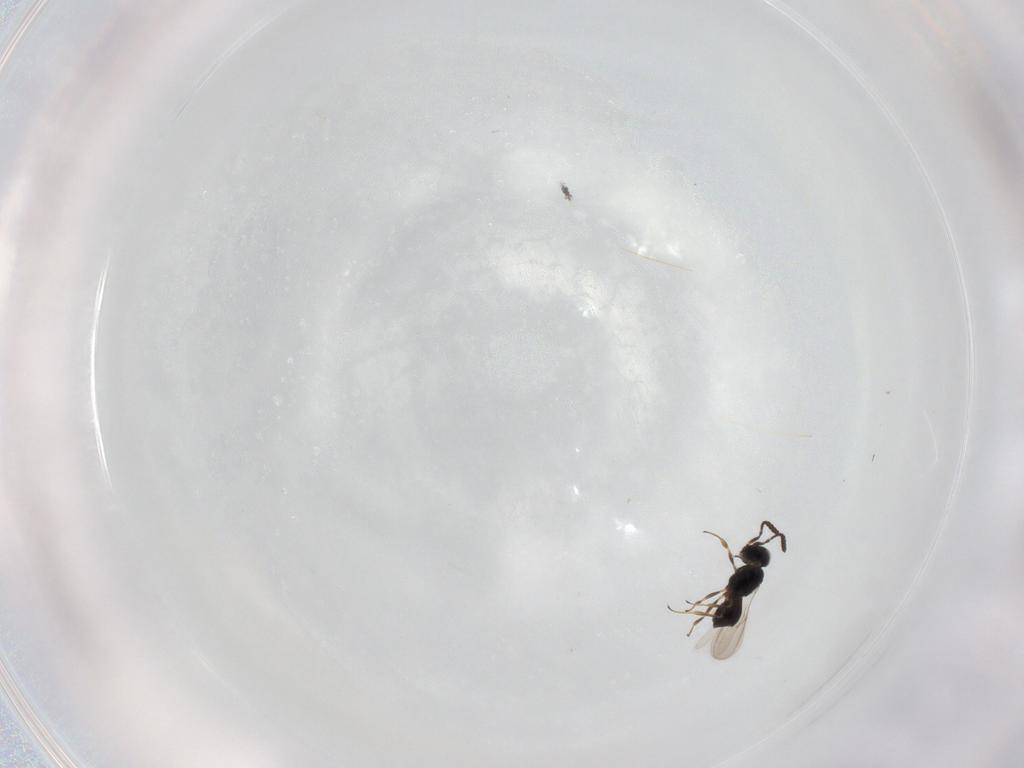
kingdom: Animalia
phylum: Arthropoda
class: Insecta
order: Hymenoptera
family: Scelionidae
